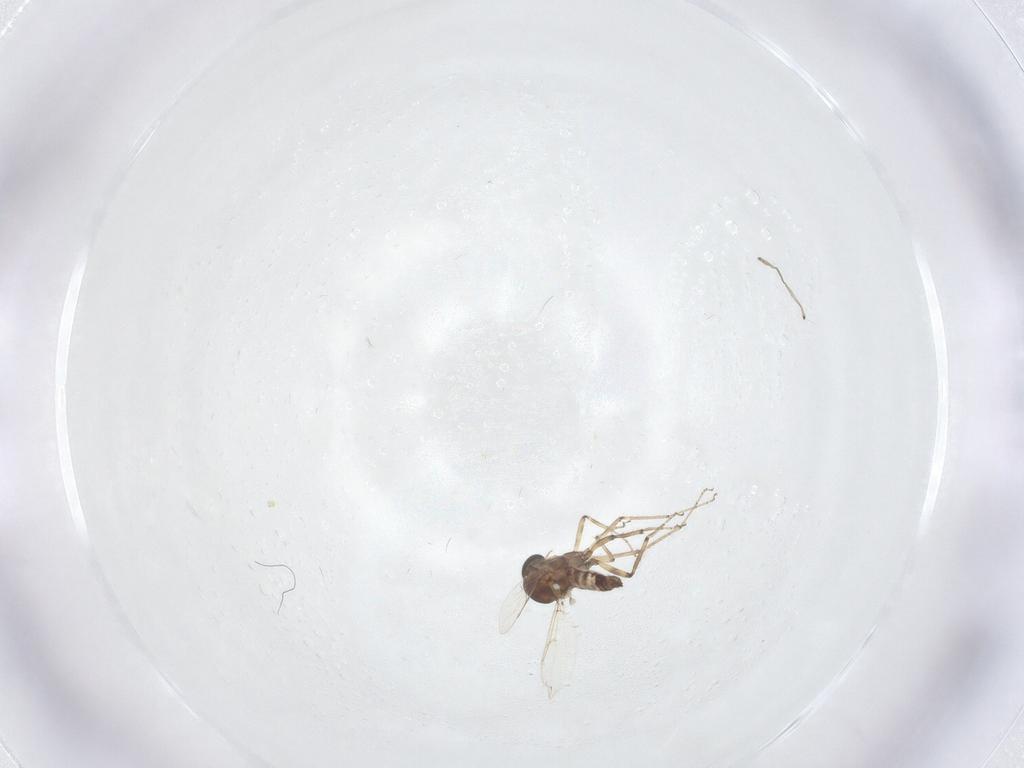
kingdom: Animalia
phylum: Arthropoda
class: Insecta
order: Diptera
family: Ceratopogonidae
